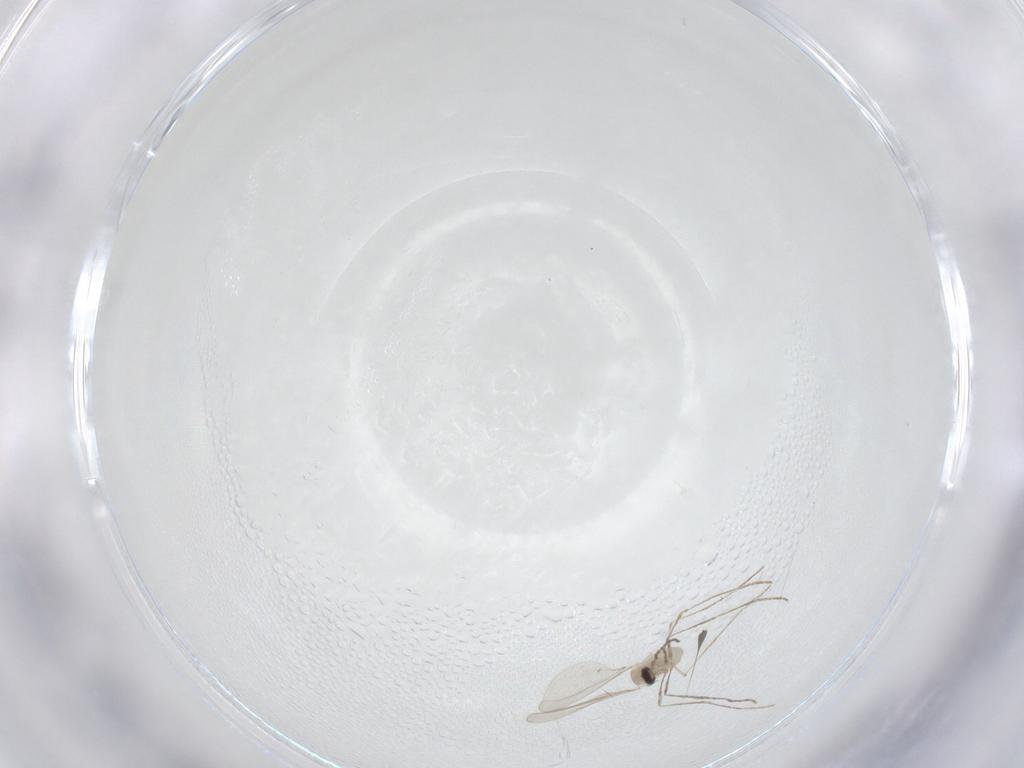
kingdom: Animalia
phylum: Arthropoda
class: Insecta
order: Diptera
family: Cecidomyiidae
